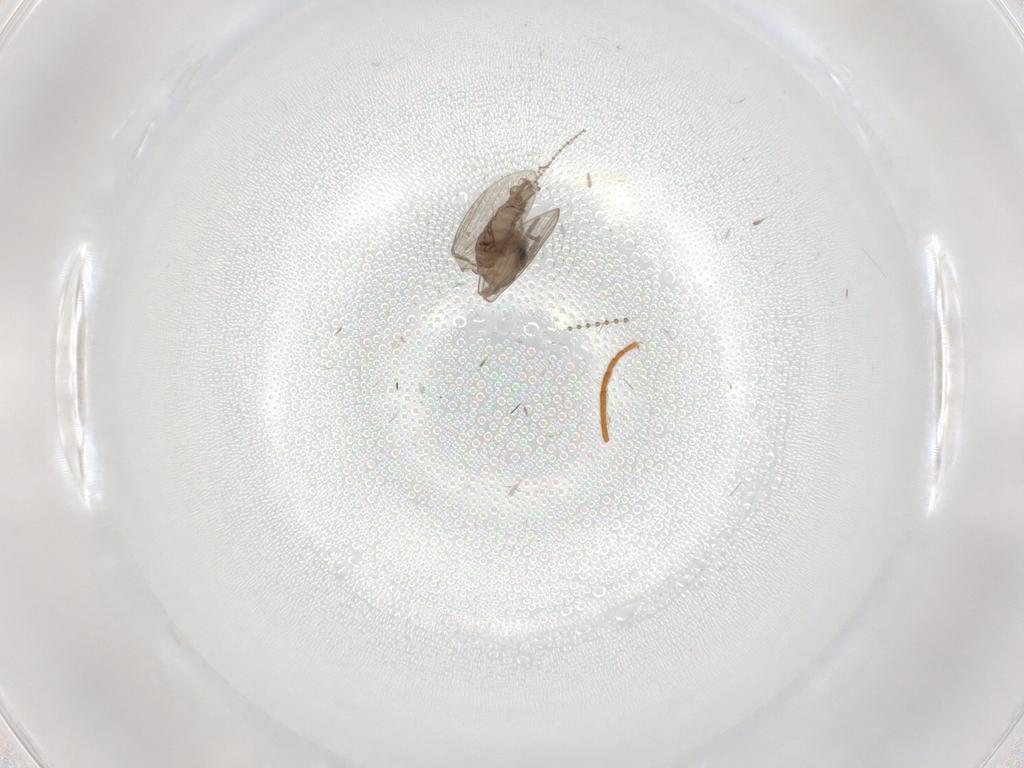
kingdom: Animalia
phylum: Arthropoda
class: Insecta
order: Diptera
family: Psychodidae
